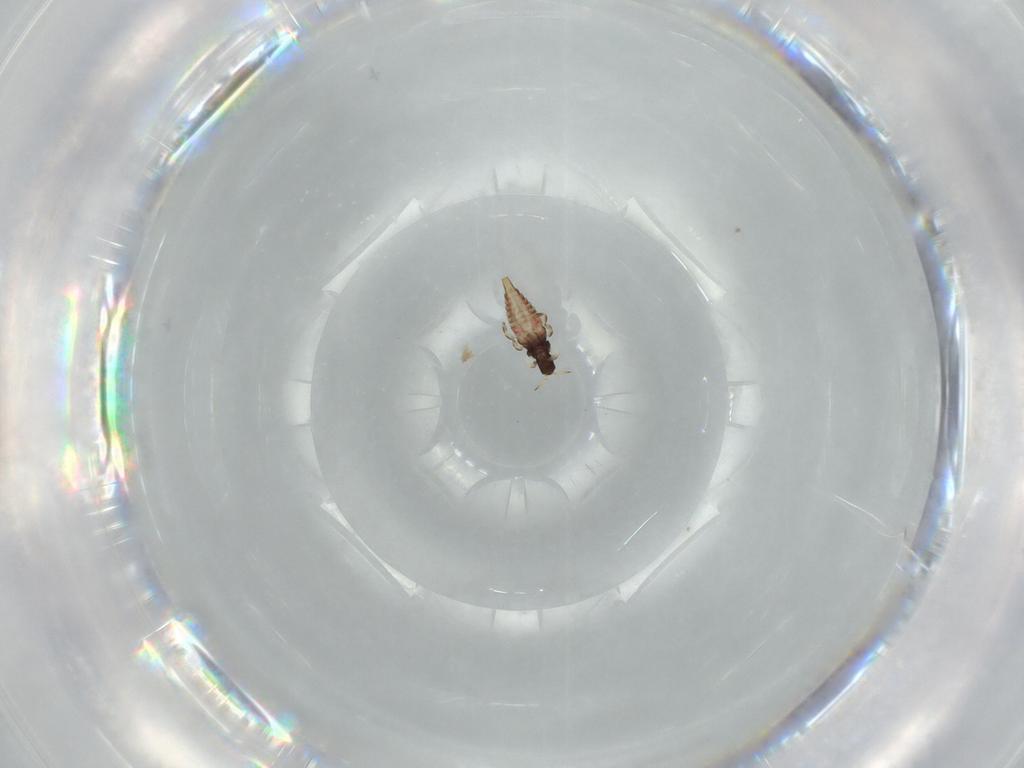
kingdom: Animalia
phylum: Arthropoda
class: Insecta
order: Thysanoptera
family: Phlaeothripidae
